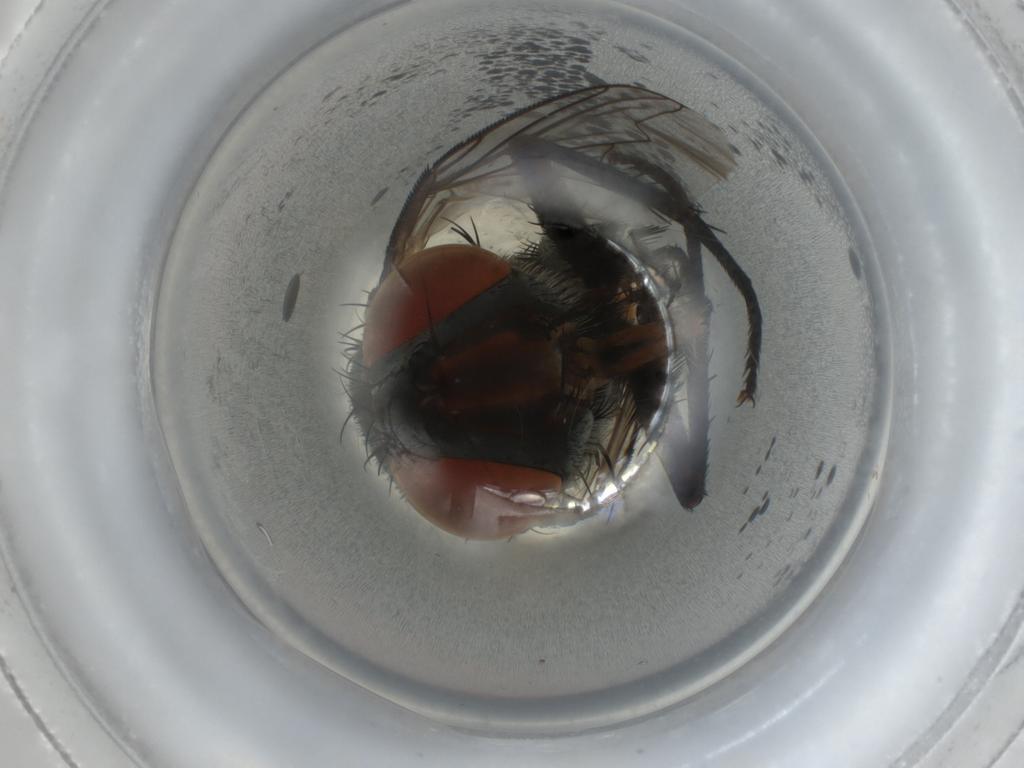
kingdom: Animalia
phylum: Arthropoda
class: Insecta
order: Diptera
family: Sarcophagidae
